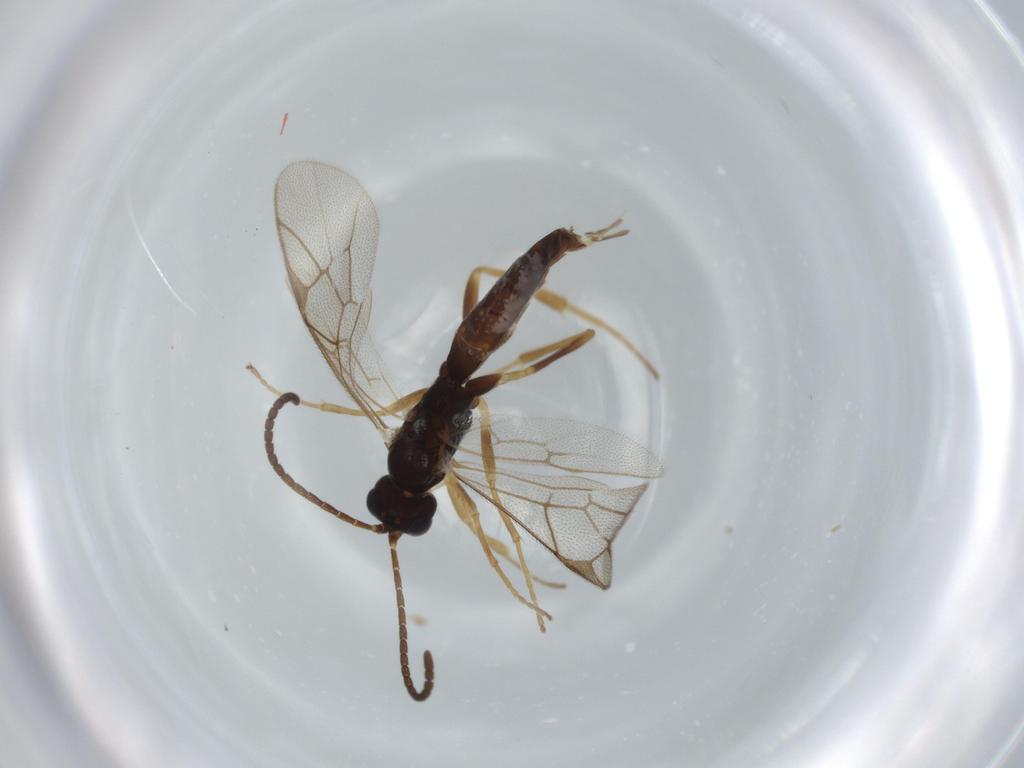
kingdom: Animalia
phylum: Arthropoda
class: Insecta
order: Hymenoptera
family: Ichneumonidae
